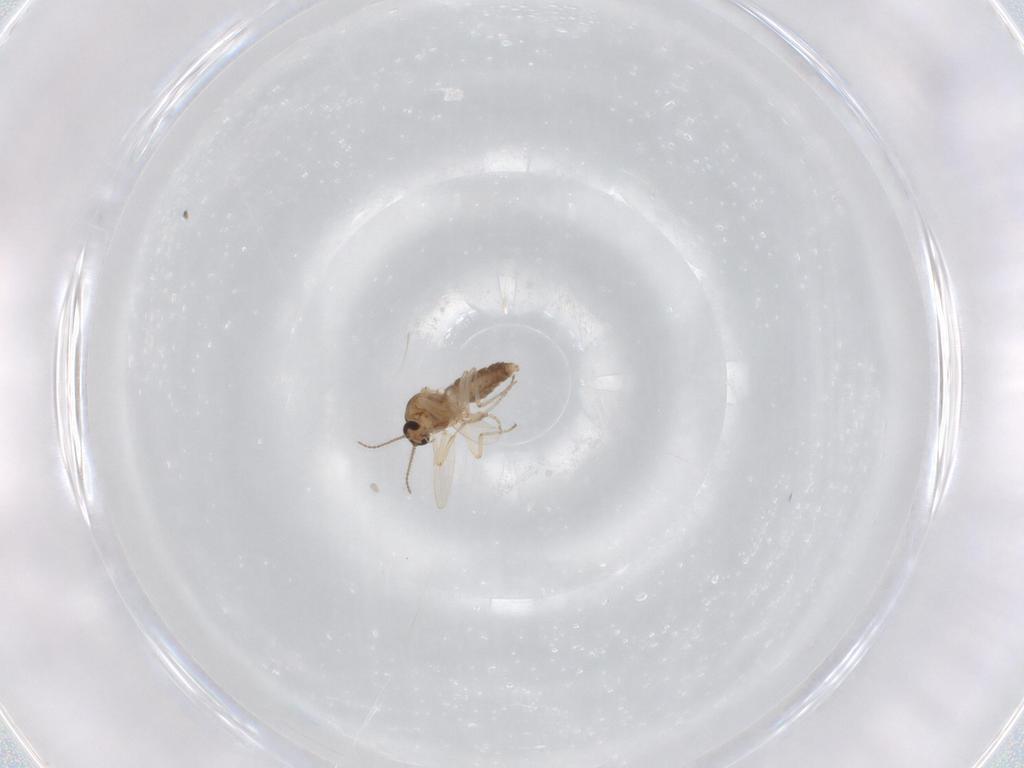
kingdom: Animalia
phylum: Arthropoda
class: Insecta
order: Diptera
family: Ceratopogonidae
